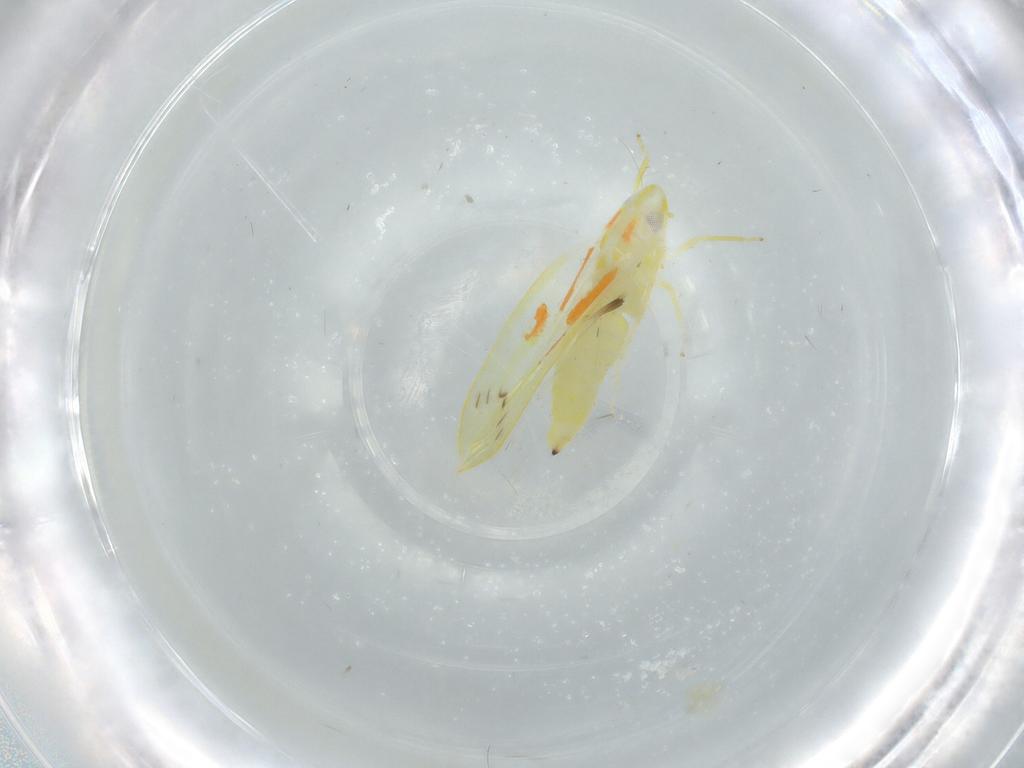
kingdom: Animalia
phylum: Arthropoda
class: Insecta
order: Hemiptera
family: Cicadellidae
